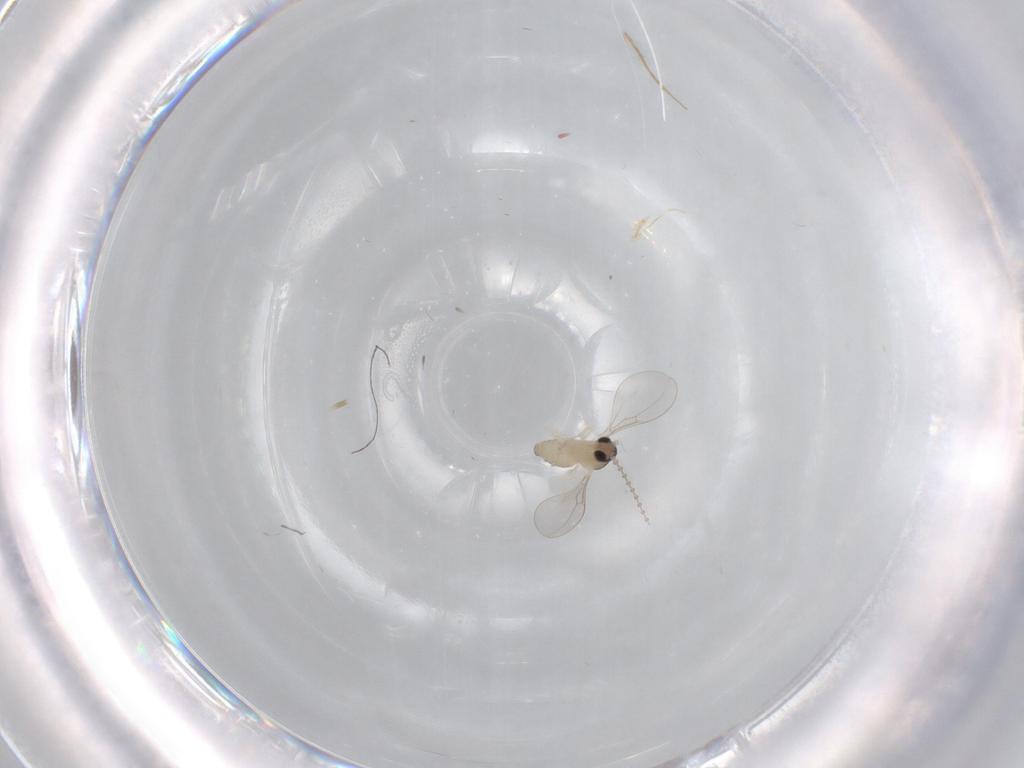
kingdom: Animalia
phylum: Arthropoda
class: Insecta
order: Diptera
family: Cecidomyiidae
